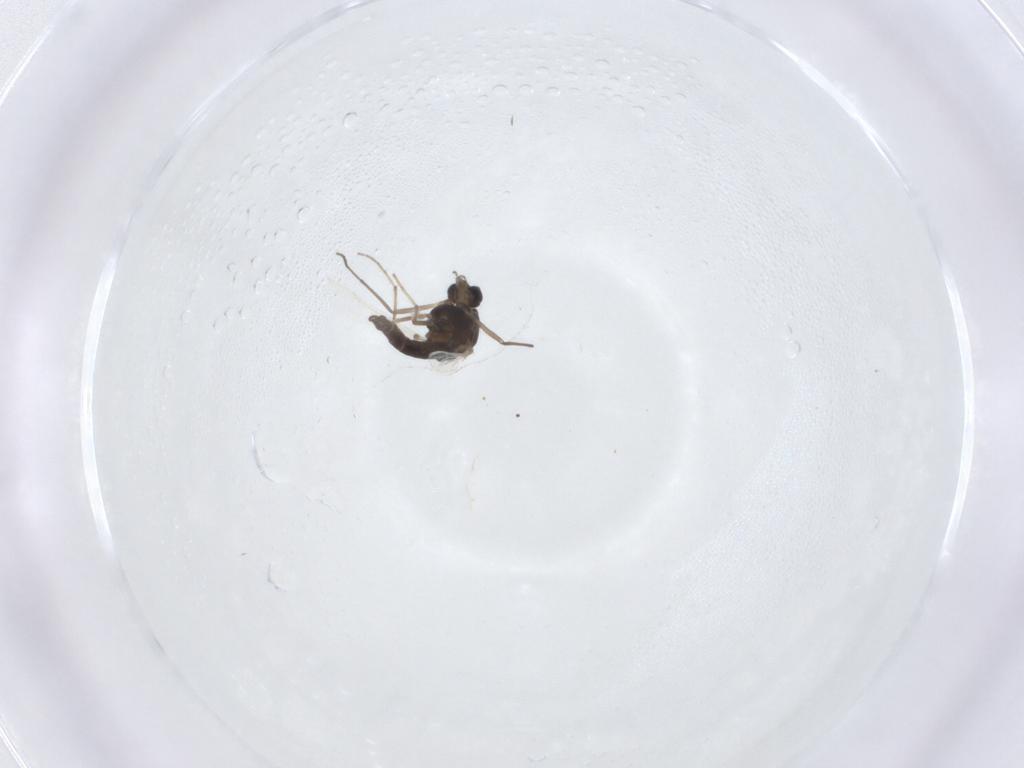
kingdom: Animalia
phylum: Arthropoda
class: Insecta
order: Diptera
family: Chironomidae
